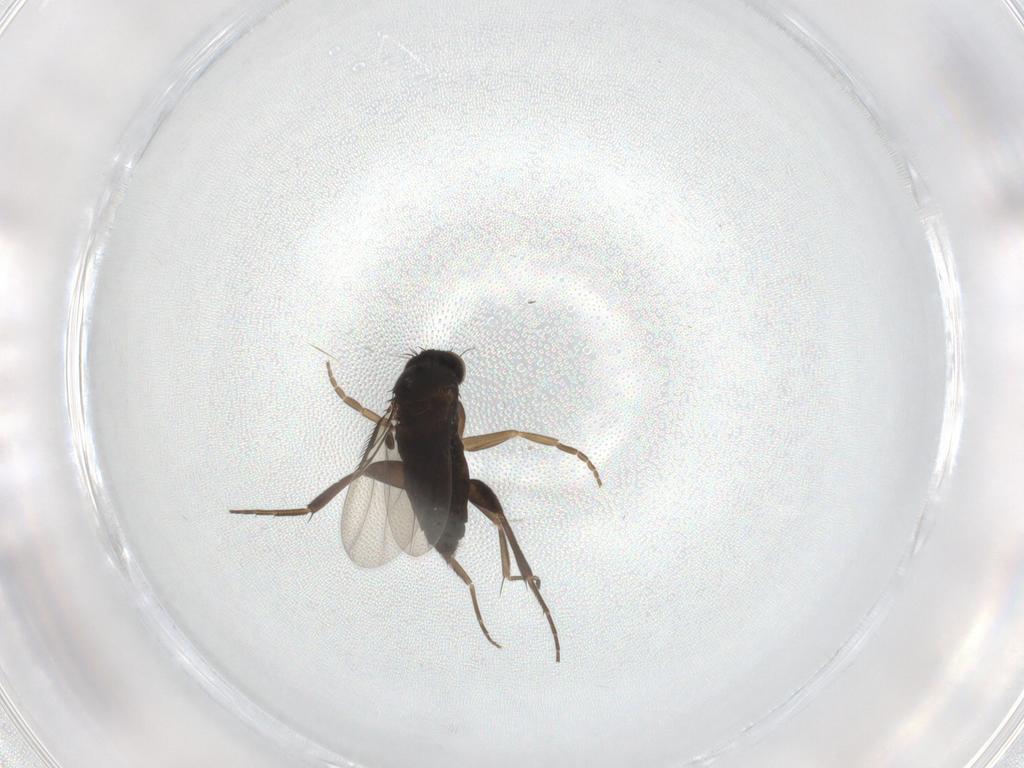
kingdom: Animalia
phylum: Arthropoda
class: Insecta
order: Diptera
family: Phoridae
